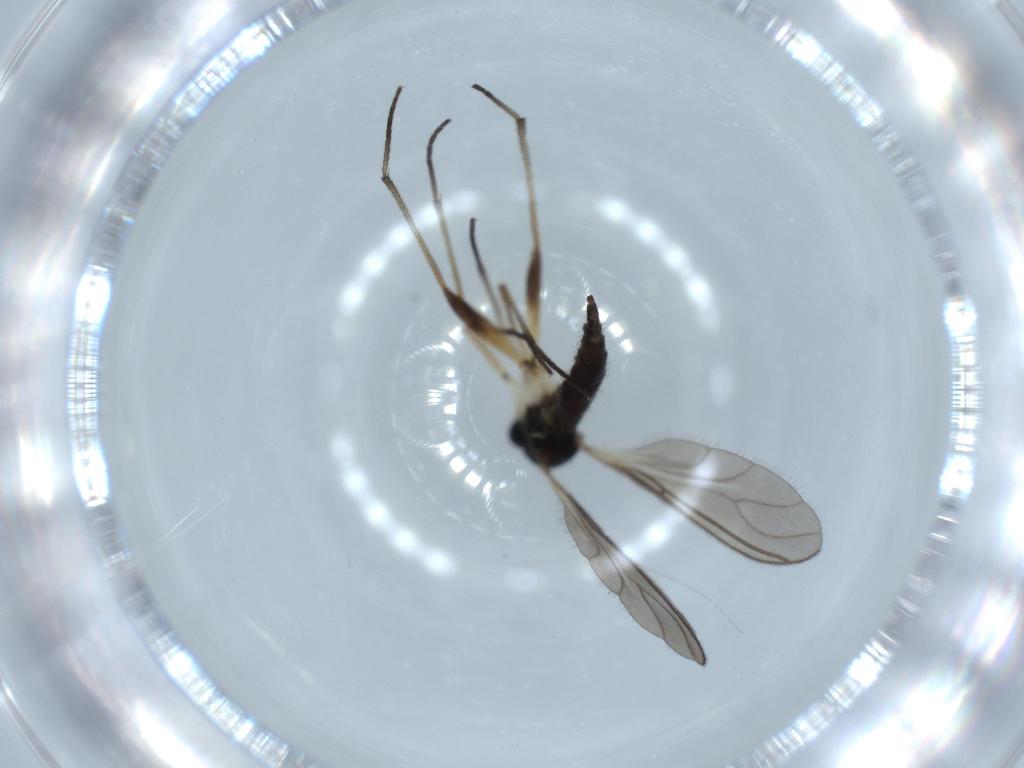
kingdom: Animalia
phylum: Arthropoda
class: Insecta
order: Diptera
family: Sciaridae
